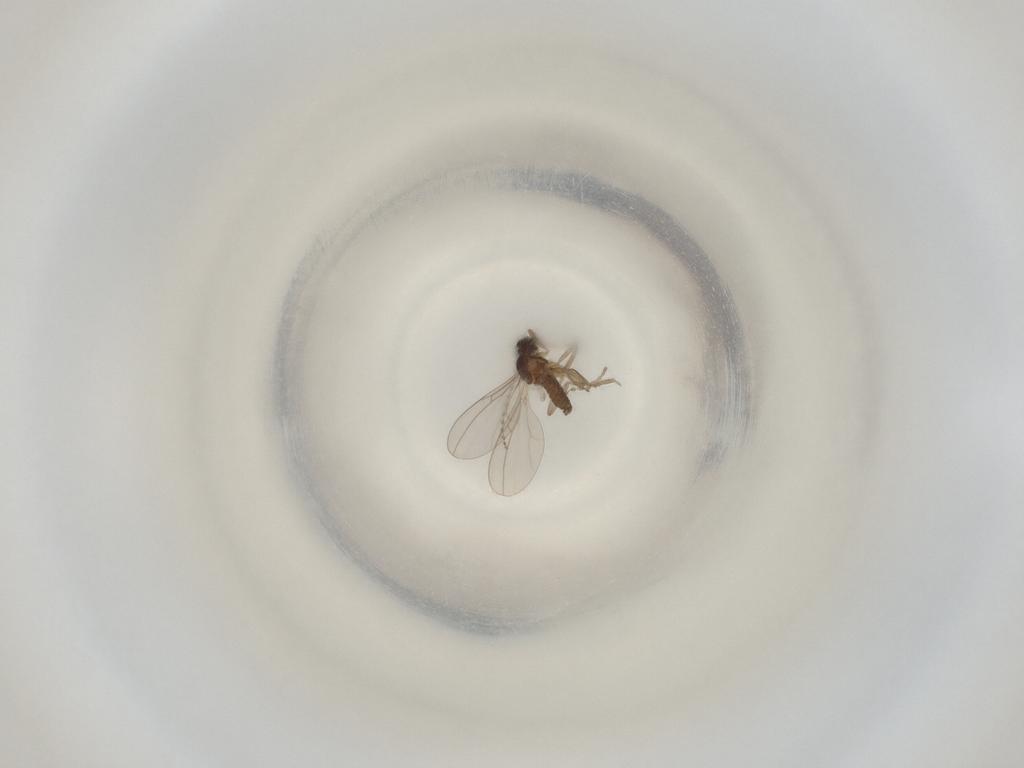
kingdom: Animalia
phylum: Arthropoda
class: Insecta
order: Diptera
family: Cecidomyiidae
